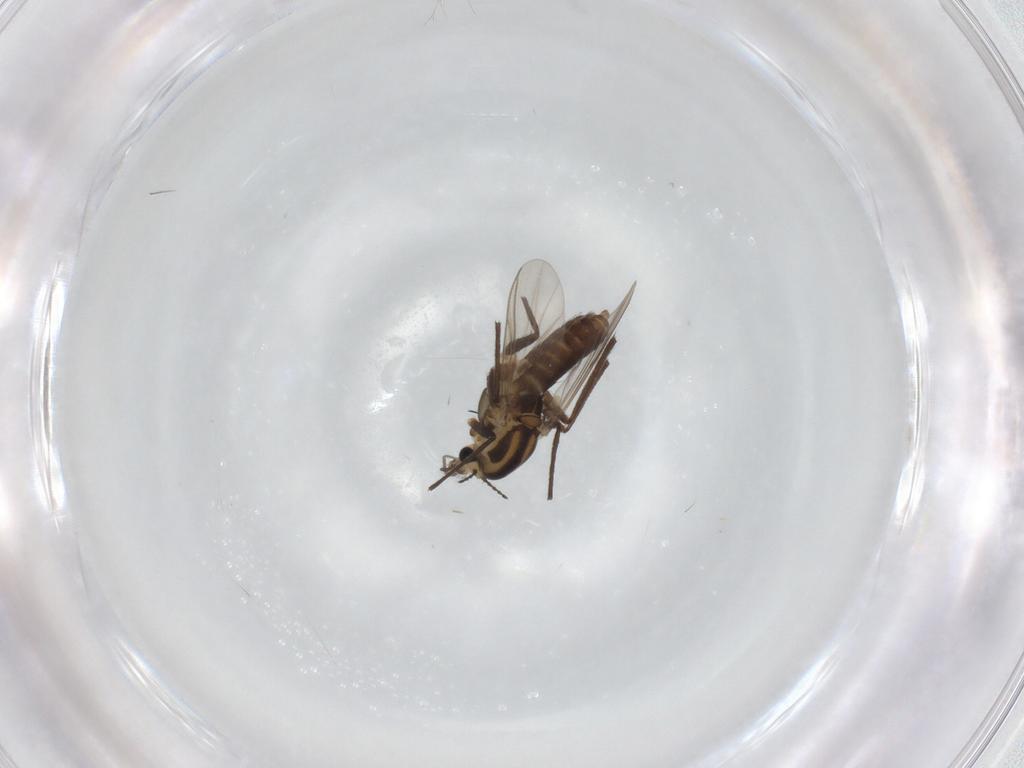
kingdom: Animalia
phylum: Arthropoda
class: Insecta
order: Diptera
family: Chironomidae
